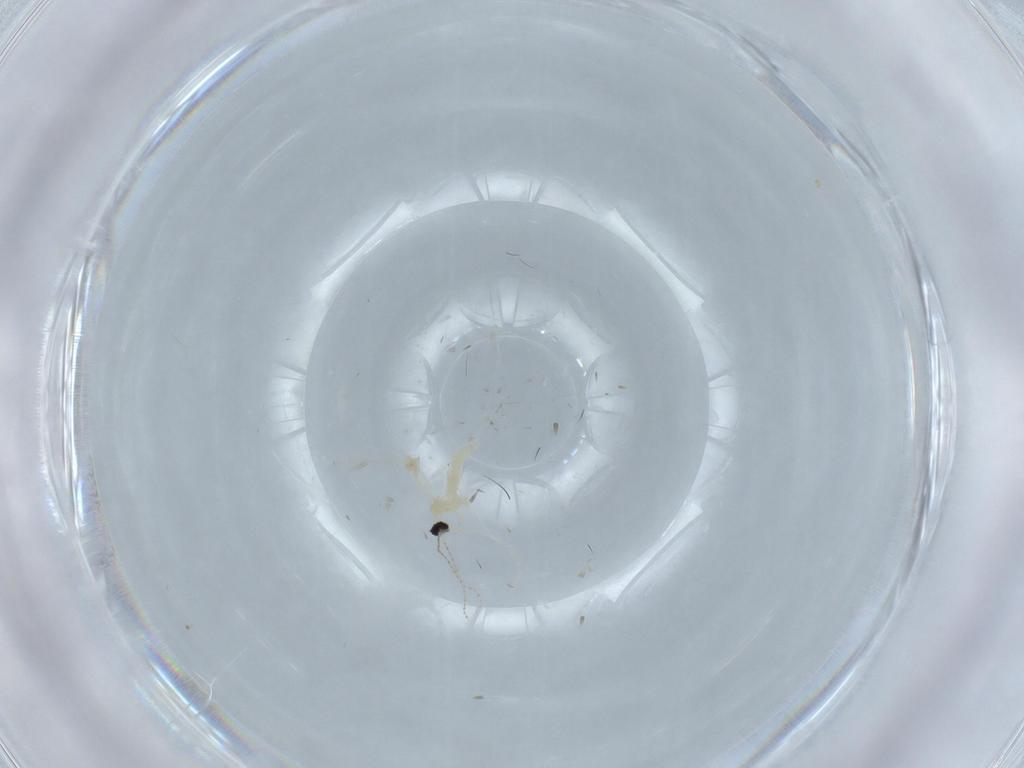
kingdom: Animalia
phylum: Arthropoda
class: Insecta
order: Diptera
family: Cecidomyiidae
